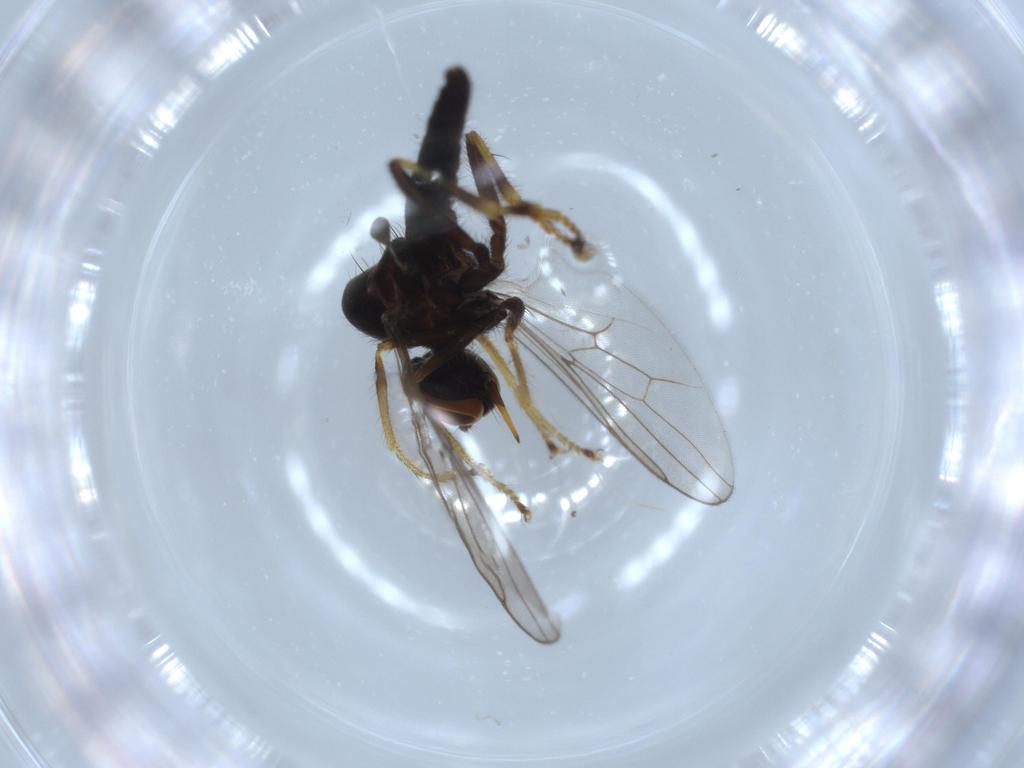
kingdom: Animalia
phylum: Arthropoda
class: Insecta
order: Diptera
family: Hybotidae
